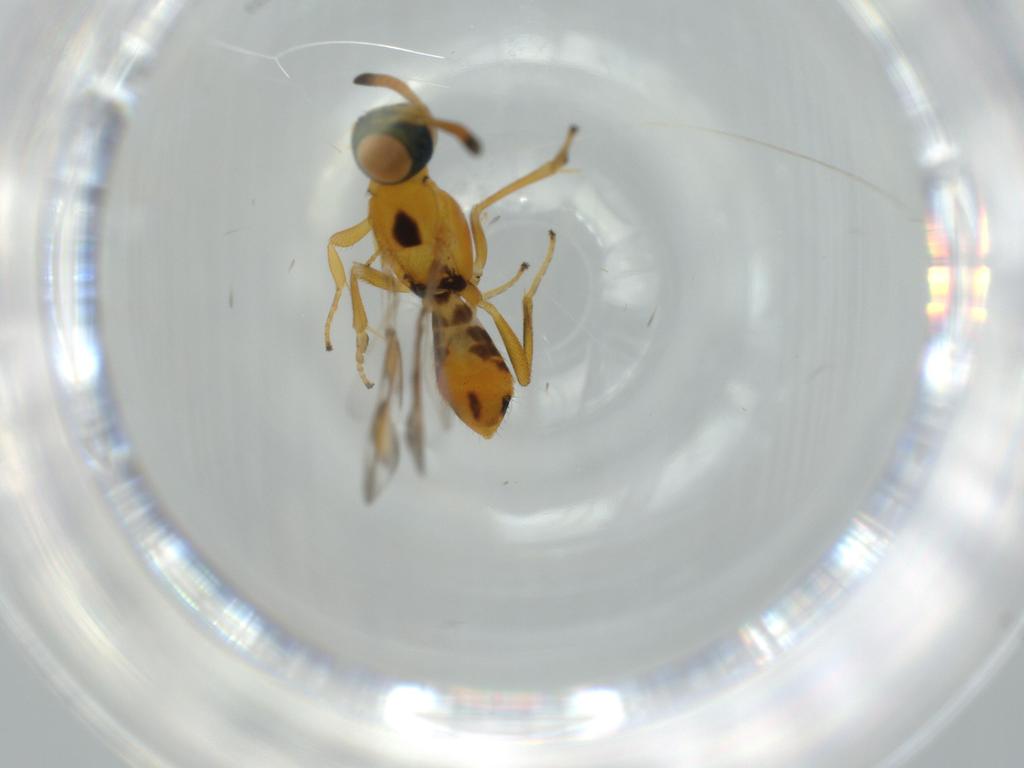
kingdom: Animalia
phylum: Arthropoda
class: Insecta
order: Hymenoptera
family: Eupelmidae
